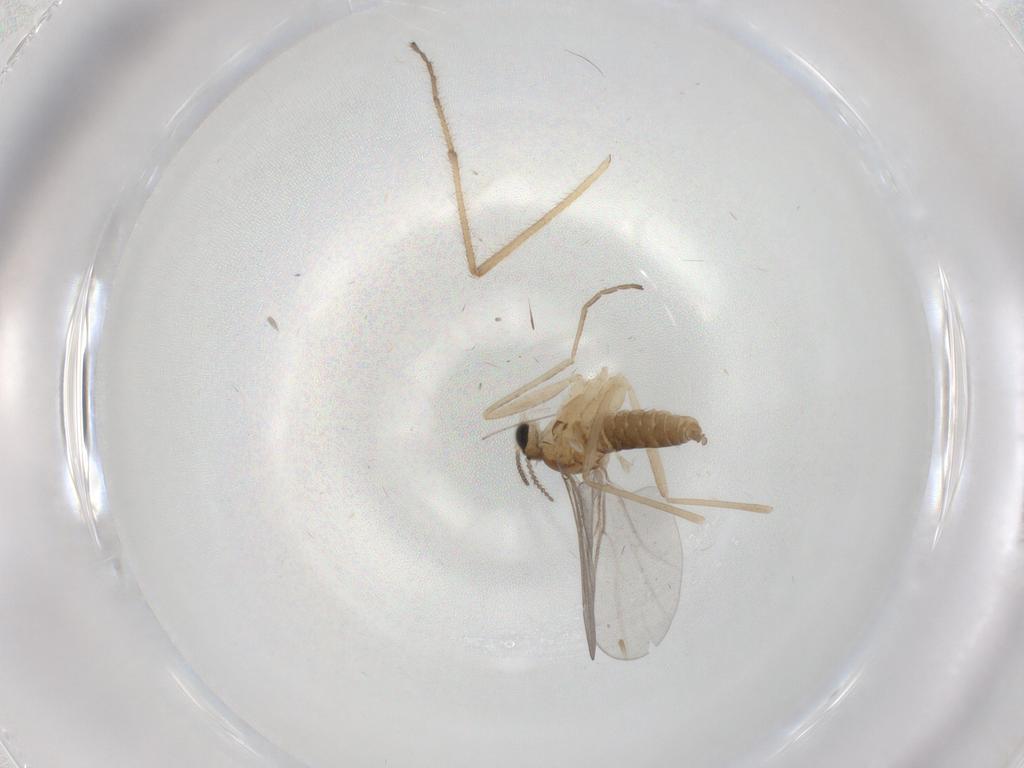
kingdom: Animalia
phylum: Arthropoda
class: Insecta
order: Diptera
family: Cecidomyiidae
